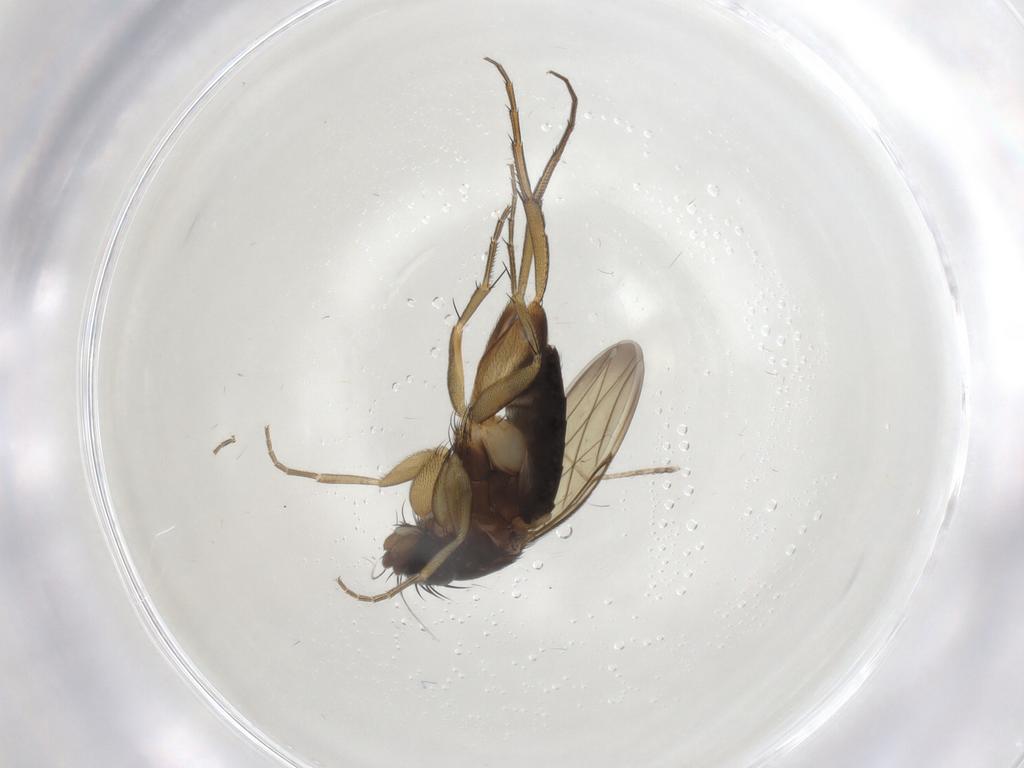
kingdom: Animalia
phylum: Arthropoda
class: Insecta
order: Diptera
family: Phoridae
